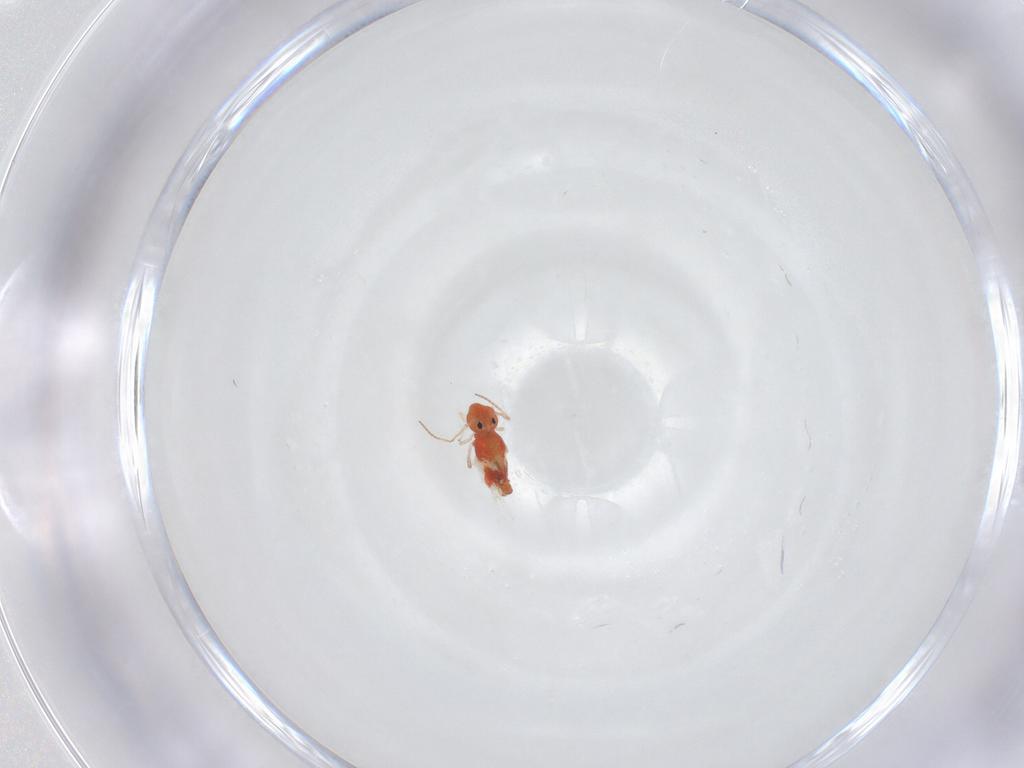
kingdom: Animalia
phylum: Arthropoda
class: Collembola
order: Symphypleona
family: Bourletiellidae
